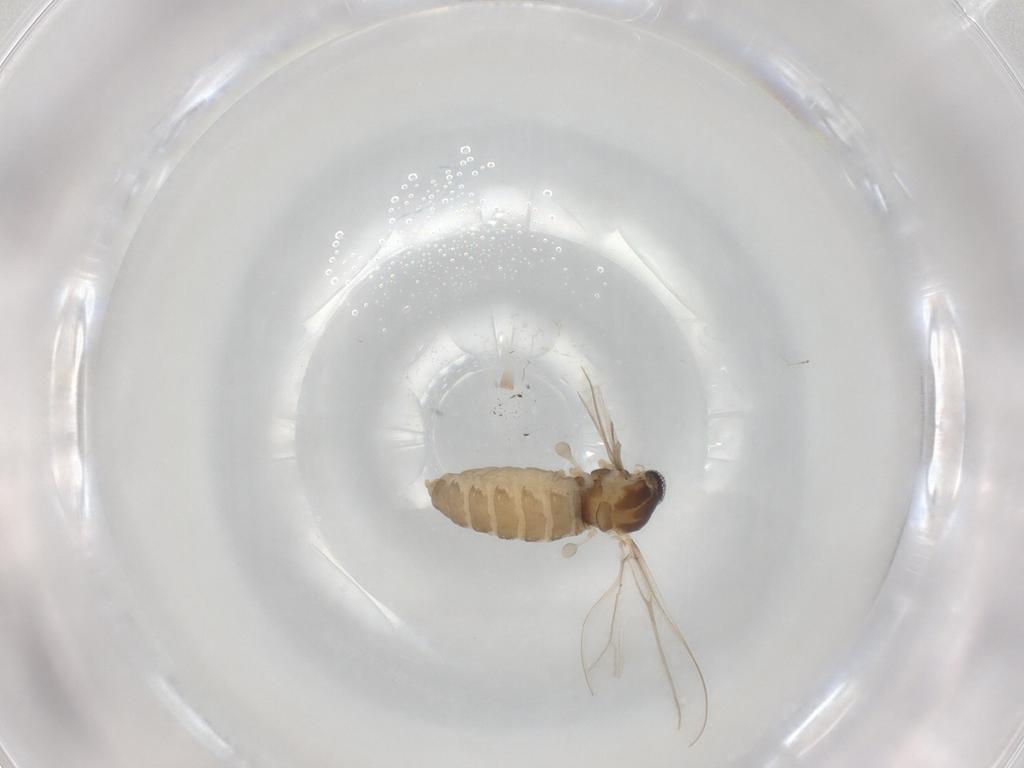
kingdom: Animalia
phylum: Arthropoda
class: Insecta
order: Diptera
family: Cecidomyiidae
